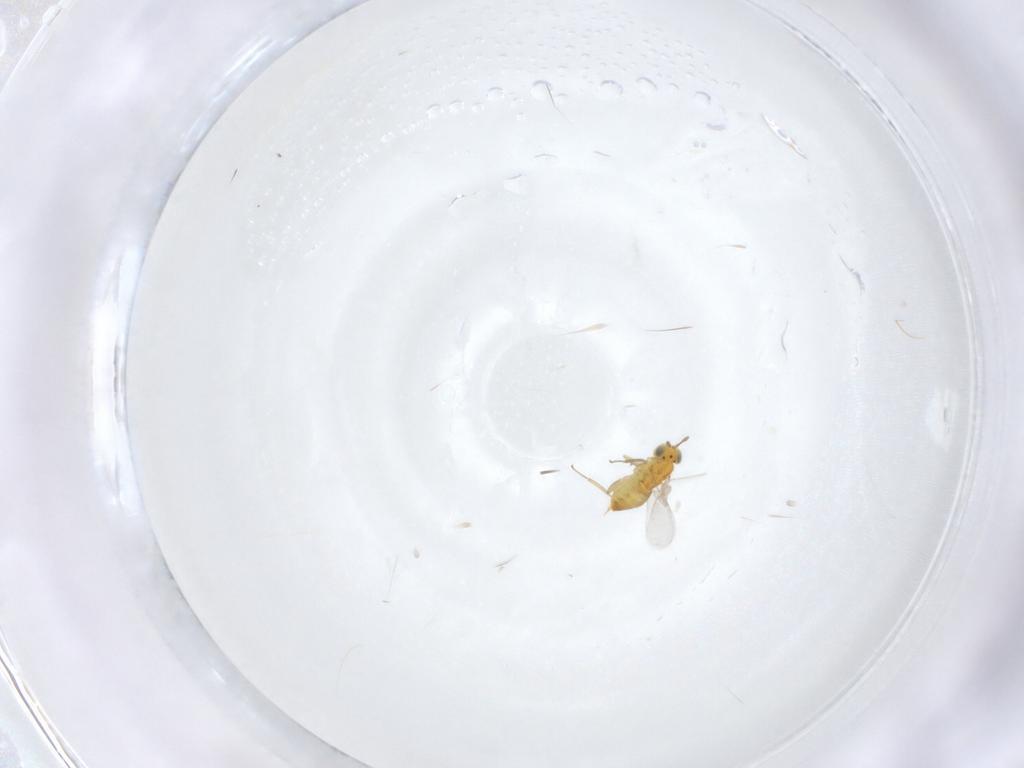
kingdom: Animalia
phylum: Arthropoda
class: Insecta
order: Hymenoptera
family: Aphelinidae
